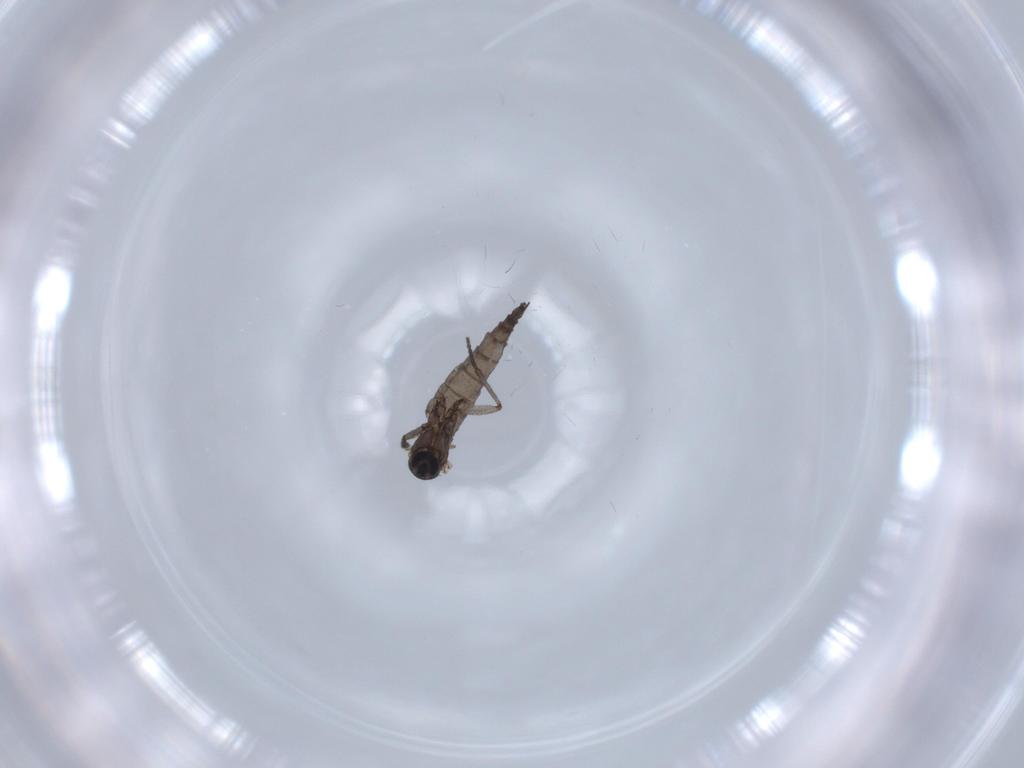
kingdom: Animalia
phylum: Arthropoda
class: Insecta
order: Diptera
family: Sciaridae
